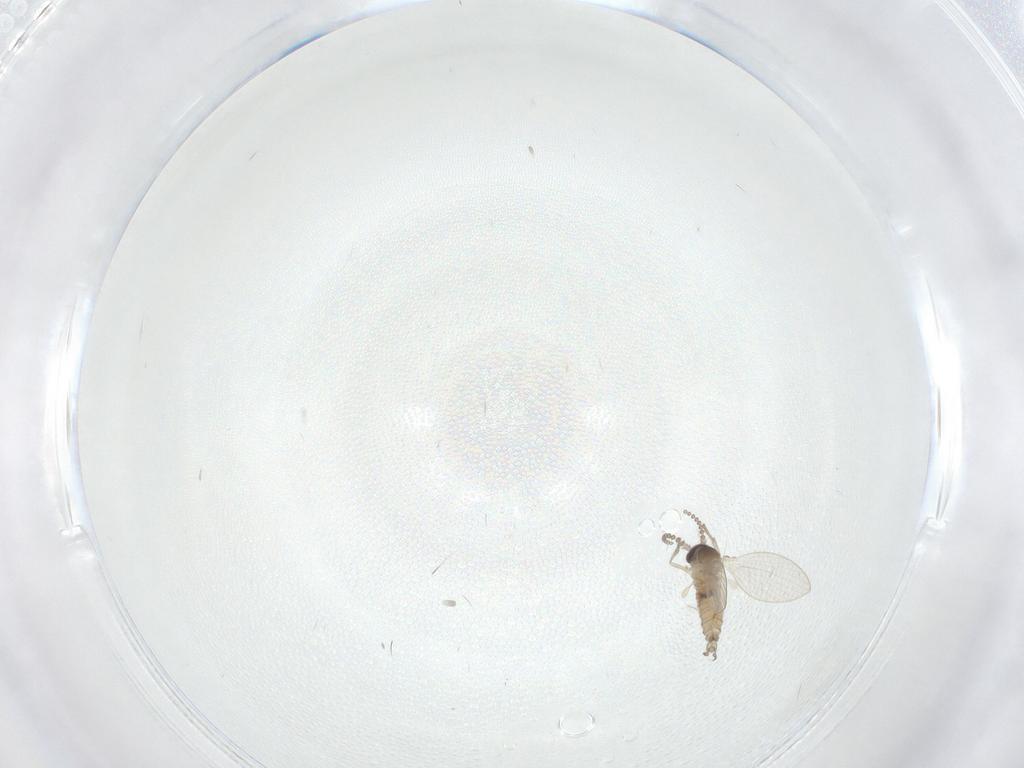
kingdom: Animalia
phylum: Arthropoda
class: Insecta
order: Diptera
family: Psychodidae
